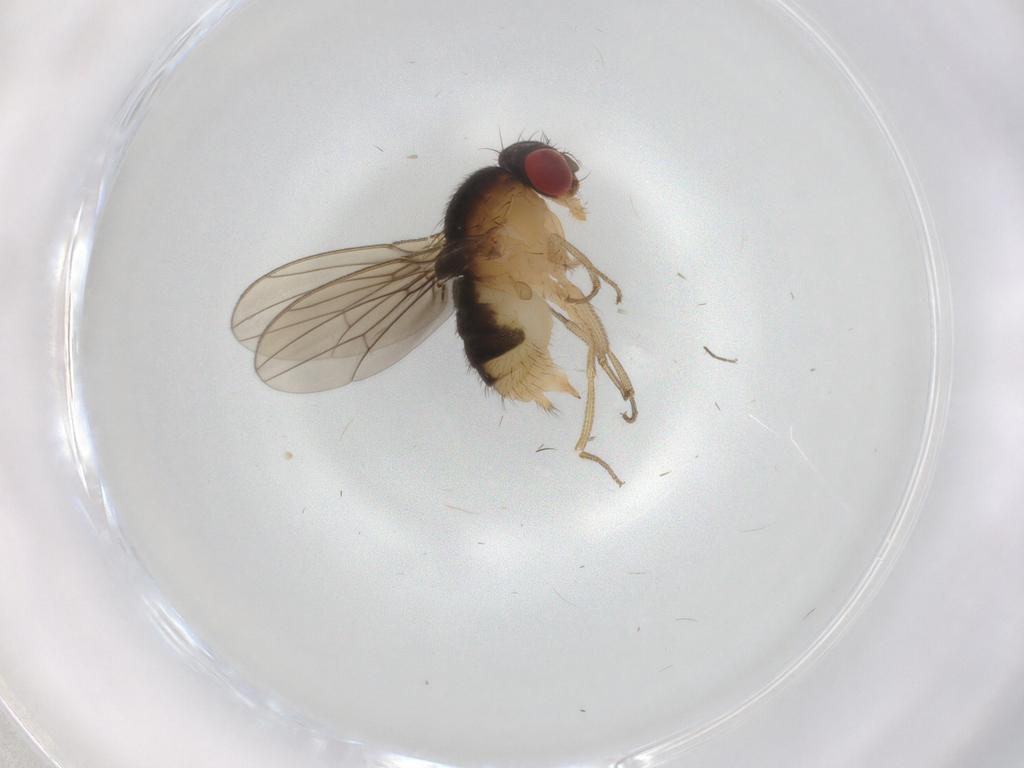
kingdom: Animalia
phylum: Arthropoda
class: Insecta
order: Diptera
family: Drosophilidae
